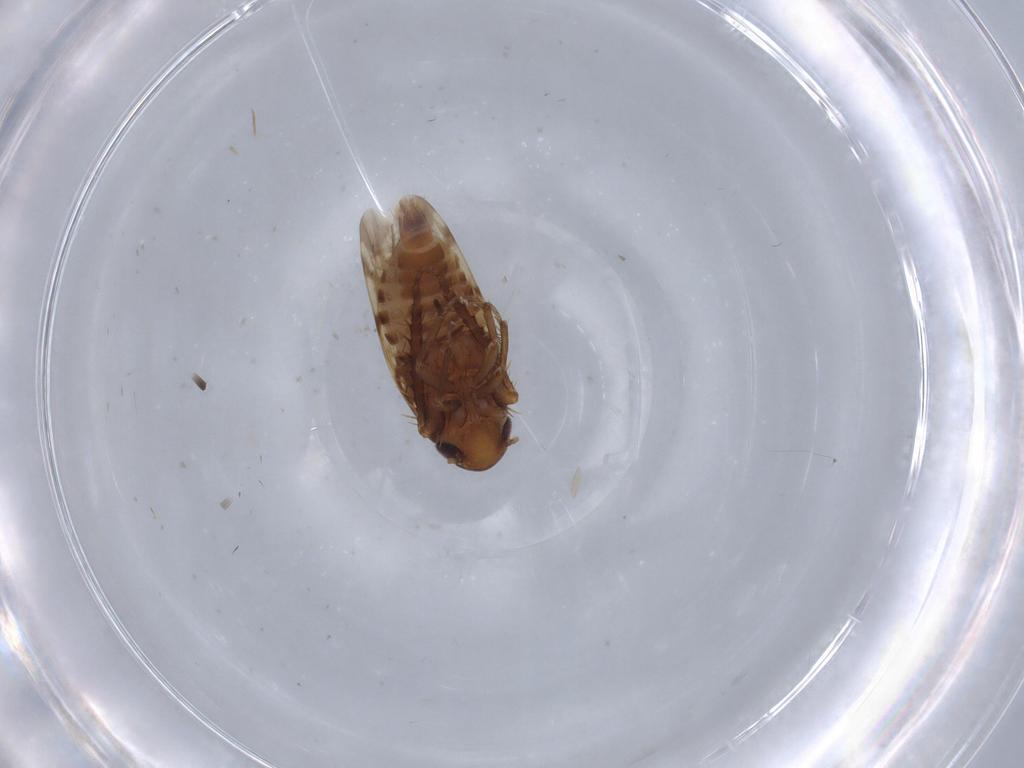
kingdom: Animalia
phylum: Arthropoda
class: Insecta
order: Hemiptera
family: Cicadellidae
